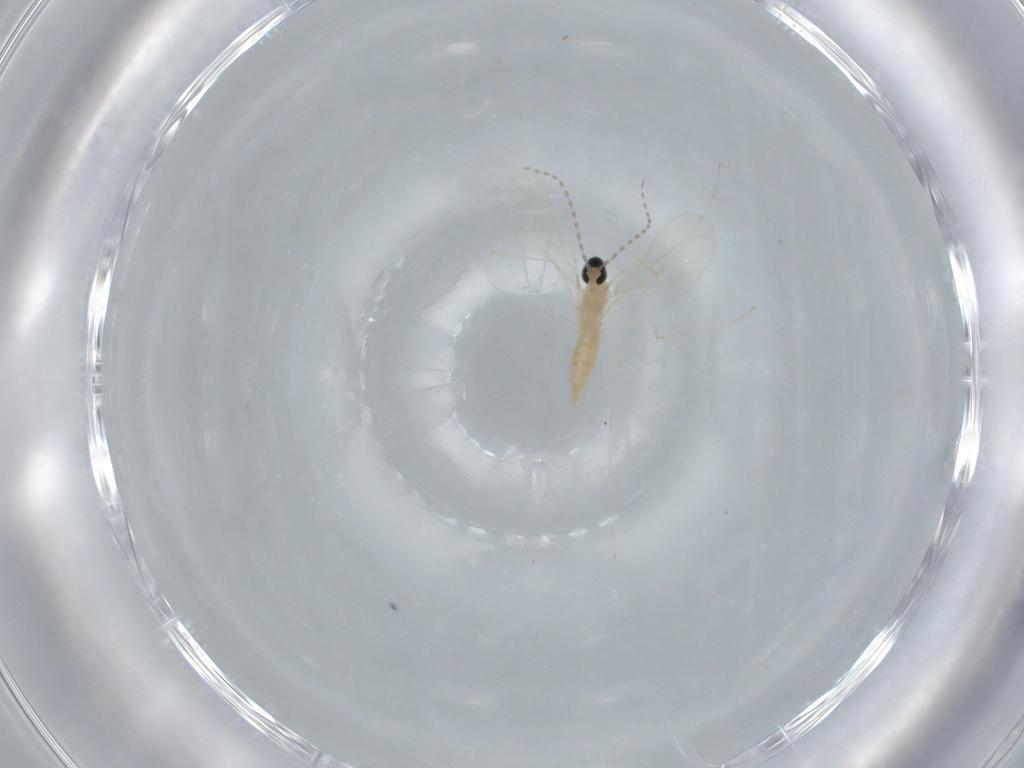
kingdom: Animalia
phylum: Arthropoda
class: Insecta
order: Diptera
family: Cecidomyiidae
